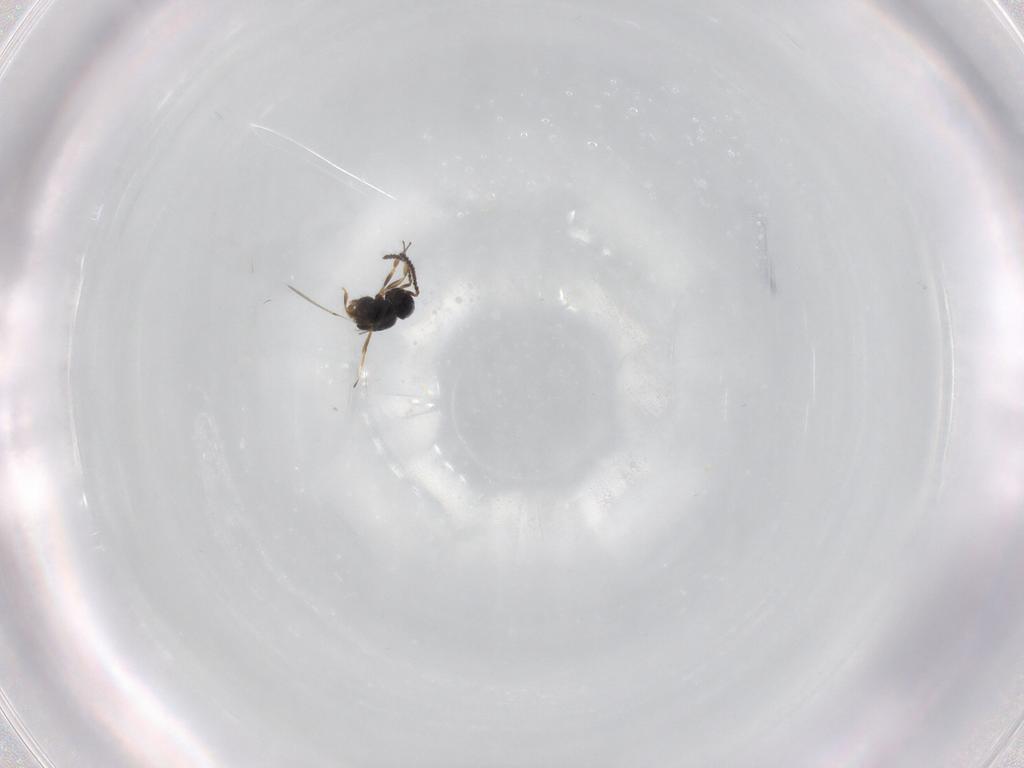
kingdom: Animalia
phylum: Arthropoda
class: Insecta
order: Hymenoptera
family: Scelionidae
